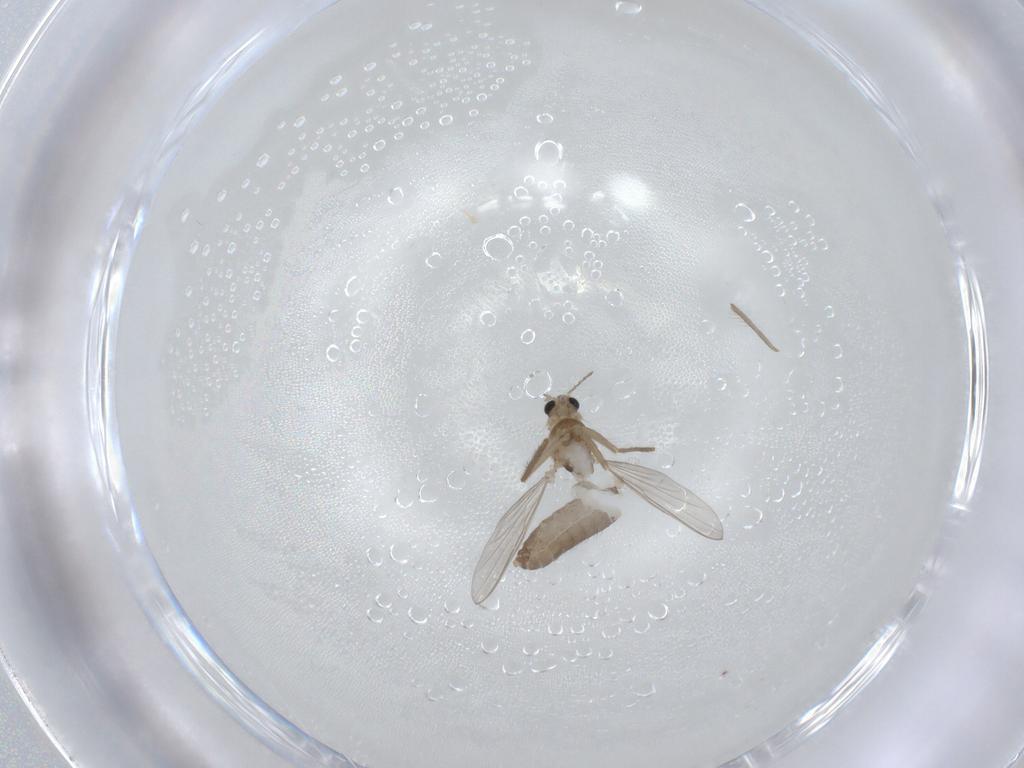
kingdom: Animalia
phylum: Arthropoda
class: Insecta
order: Diptera
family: Chironomidae
